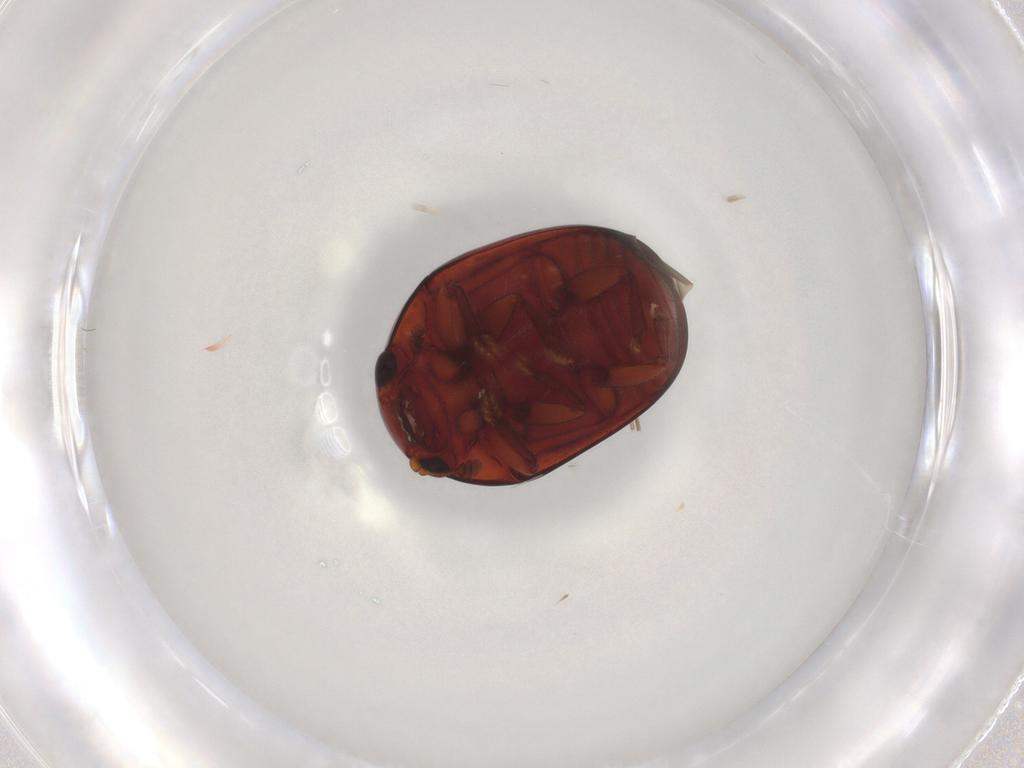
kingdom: Animalia
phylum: Arthropoda
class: Insecta
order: Coleoptera
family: Nitidulidae
